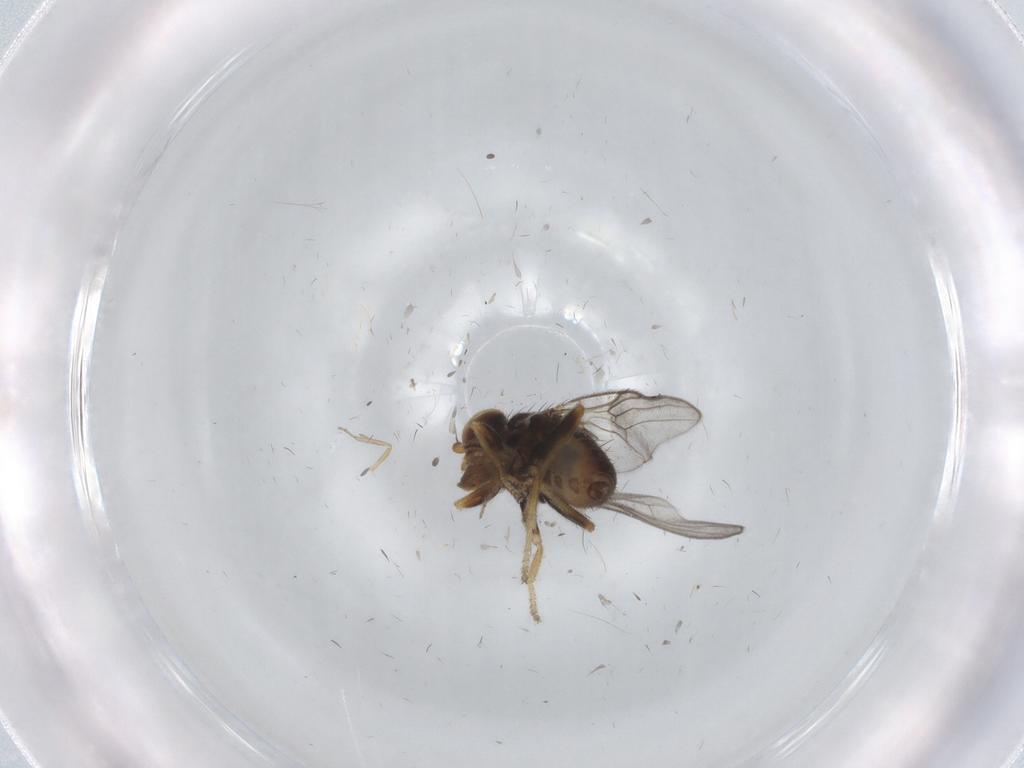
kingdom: Animalia
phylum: Arthropoda
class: Insecta
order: Diptera
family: Chloropidae
